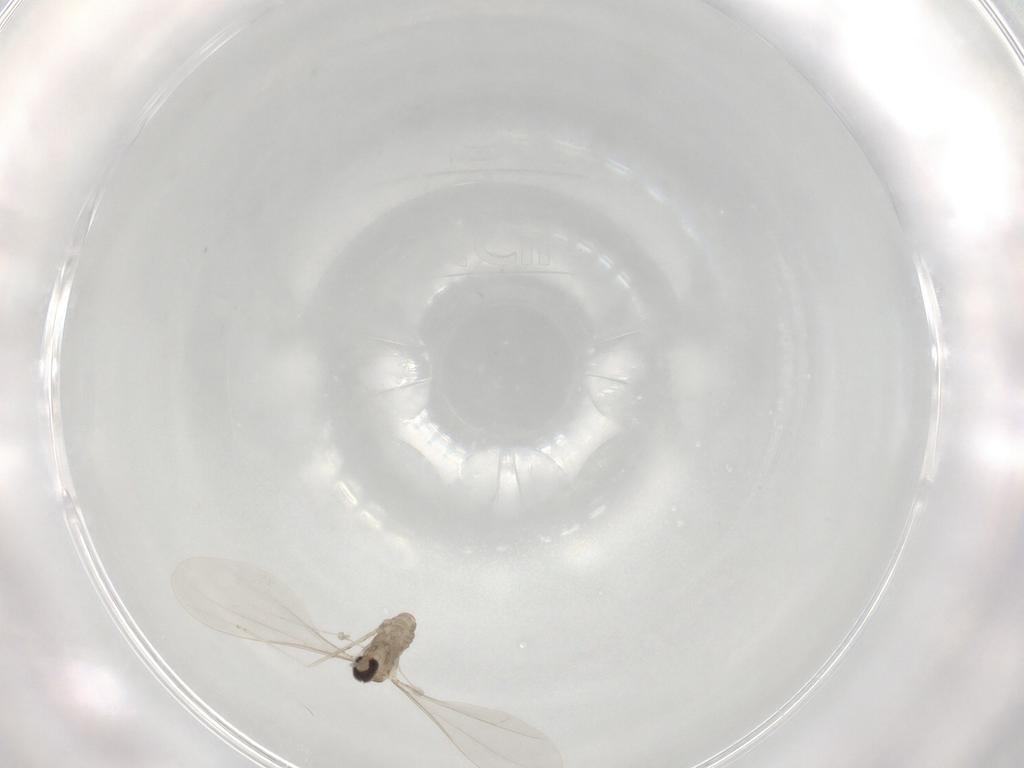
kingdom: Animalia
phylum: Arthropoda
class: Insecta
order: Diptera
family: Cecidomyiidae
